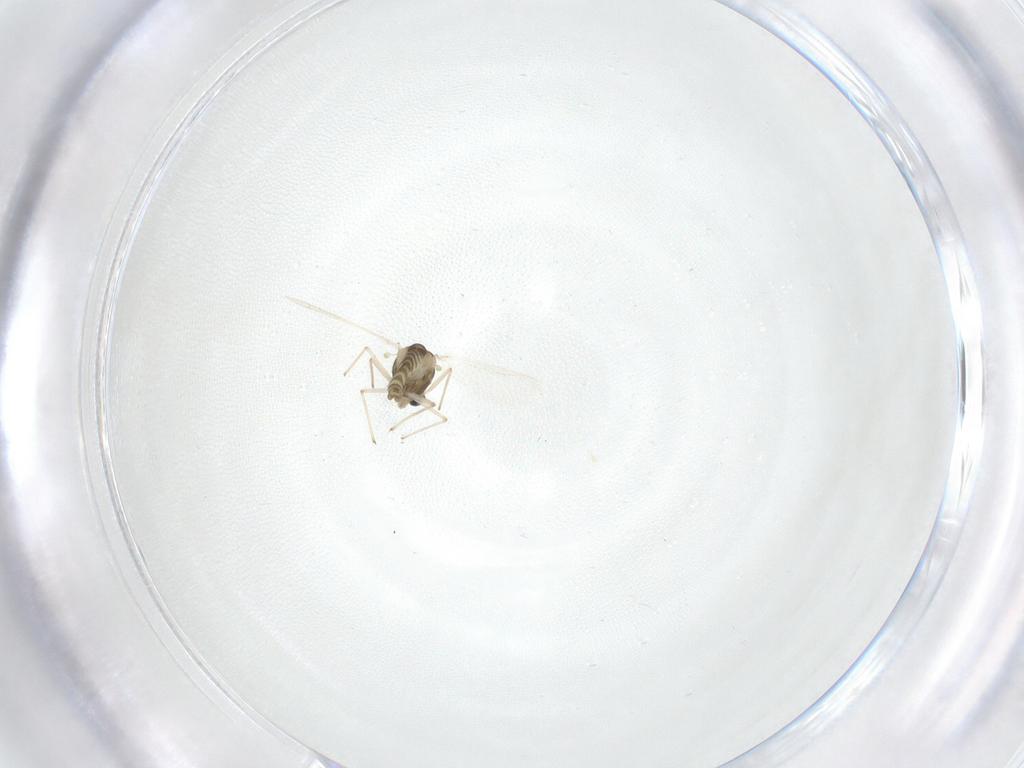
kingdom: Animalia
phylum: Arthropoda
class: Insecta
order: Diptera
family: Chironomidae
